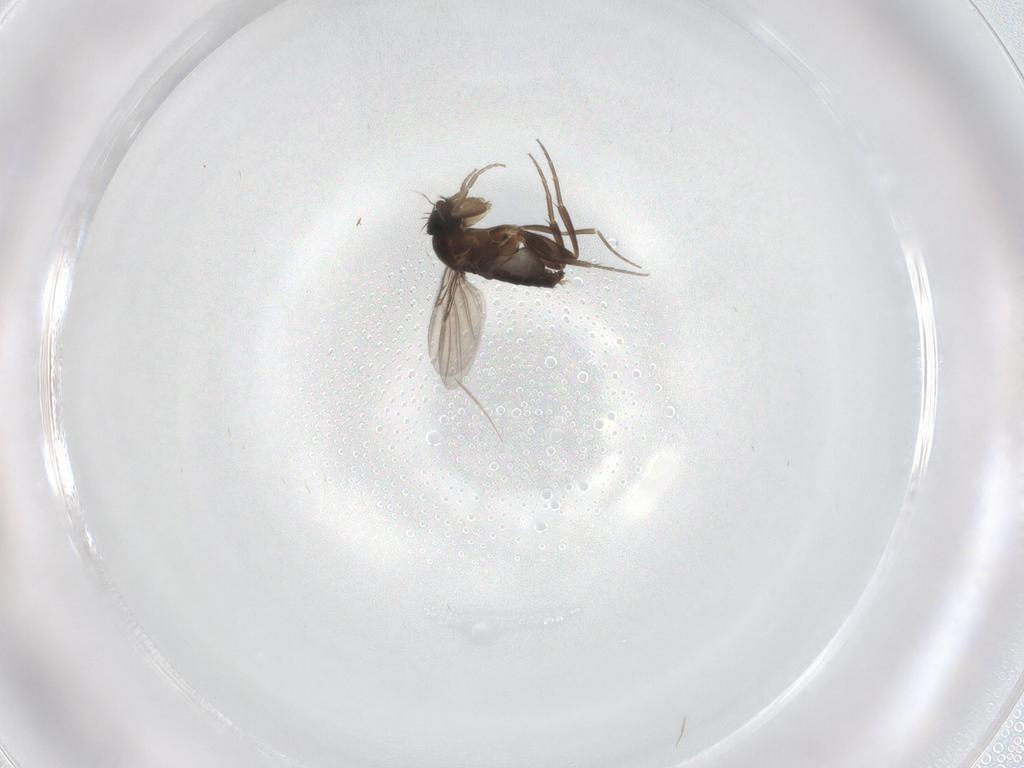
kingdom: Animalia
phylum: Arthropoda
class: Insecta
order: Diptera
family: Phoridae
